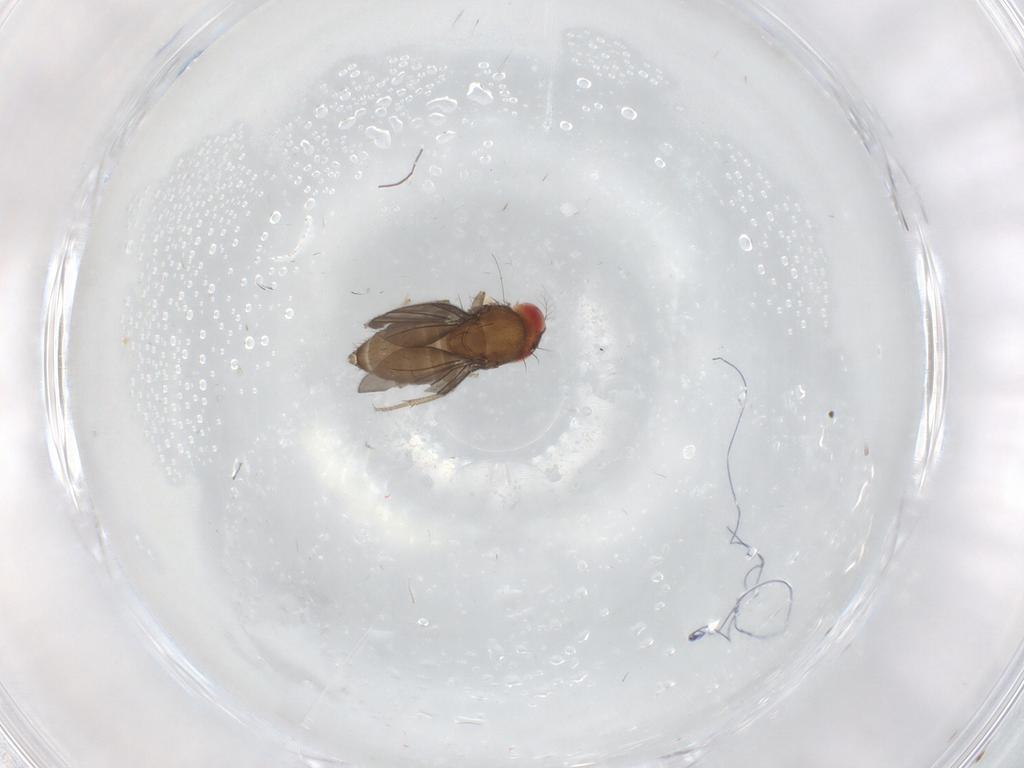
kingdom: Animalia
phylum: Arthropoda
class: Insecta
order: Diptera
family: Drosophilidae
